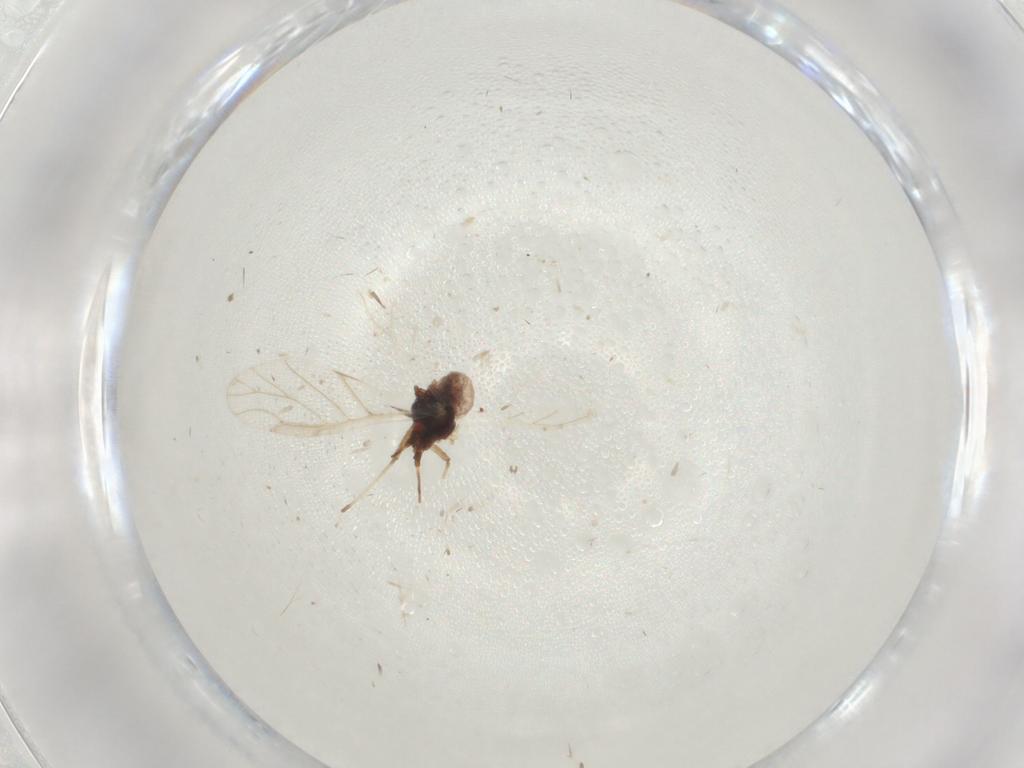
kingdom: Animalia
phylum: Arthropoda
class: Insecta
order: Hemiptera
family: Aphididae
